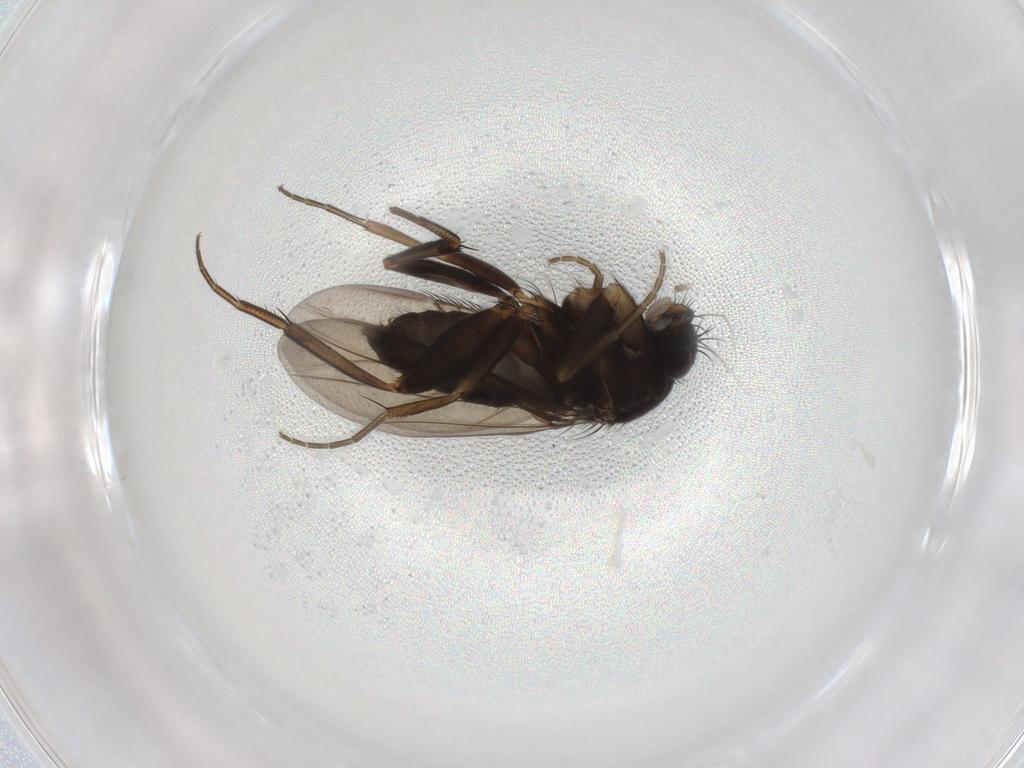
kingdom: Animalia
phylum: Arthropoda
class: Insecta
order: Diptera
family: Phoridae
